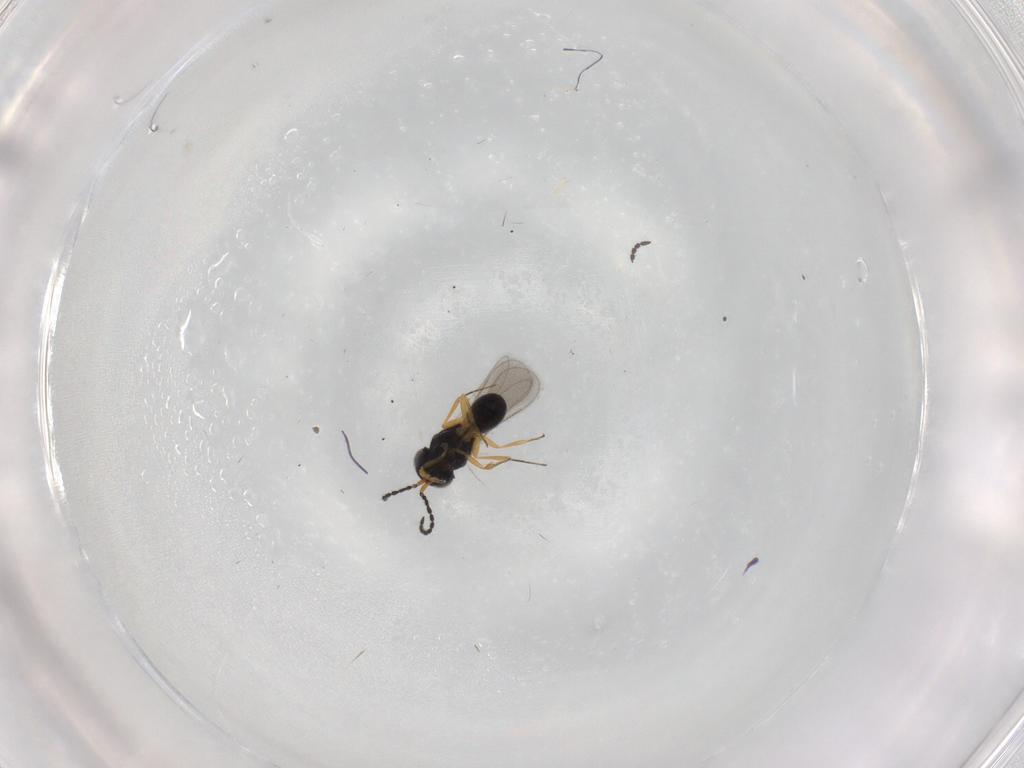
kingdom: Animalia
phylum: Arthropoda
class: Insecta
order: Hymenoptera
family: Scelionidae
